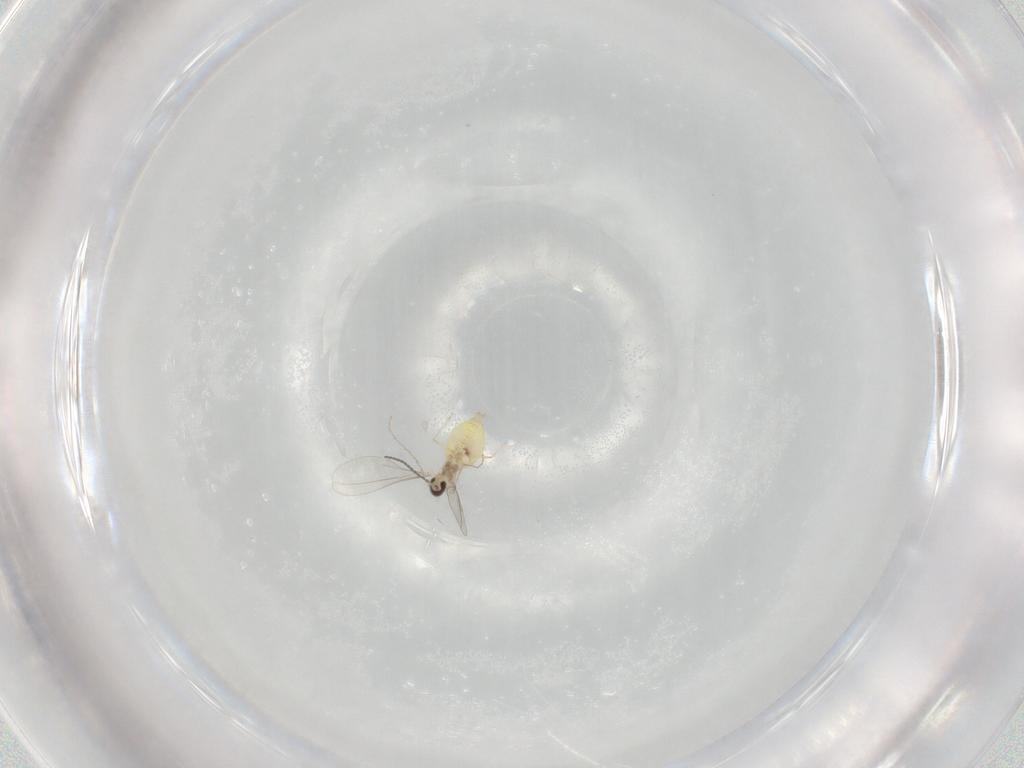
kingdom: Animalia
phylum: Arthropoda
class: Insecta
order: Diptera
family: Cecidomyiidae
